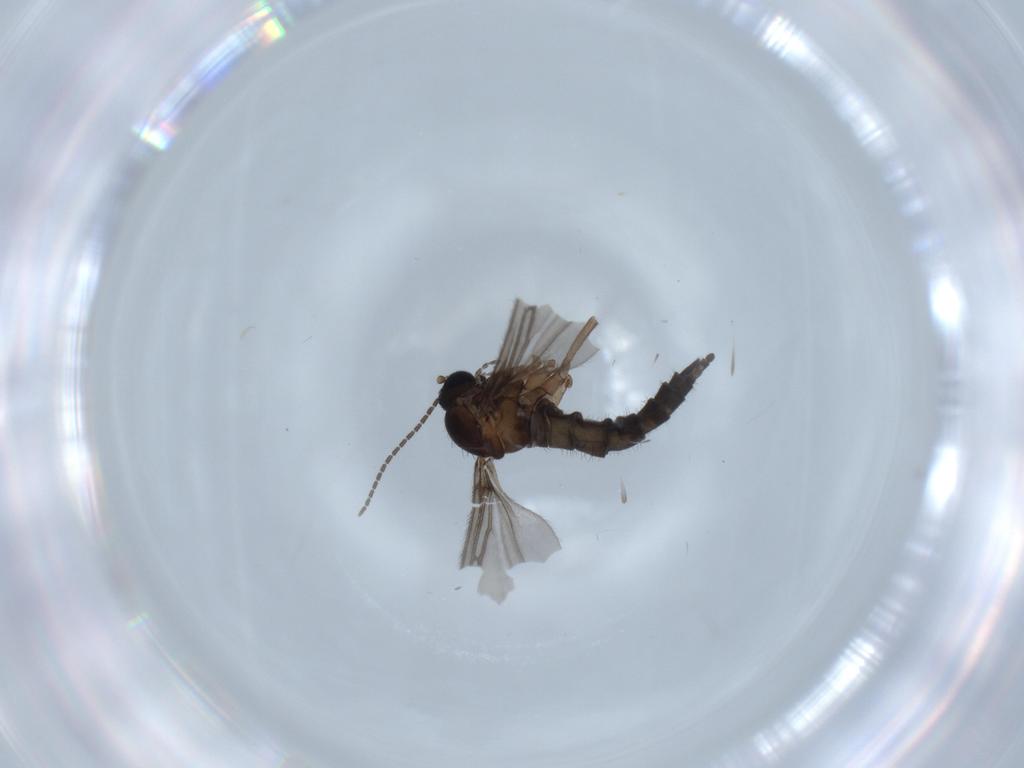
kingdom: Animalia
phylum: Arthropoda
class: Insecta
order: Diptera
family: Sciaridae
